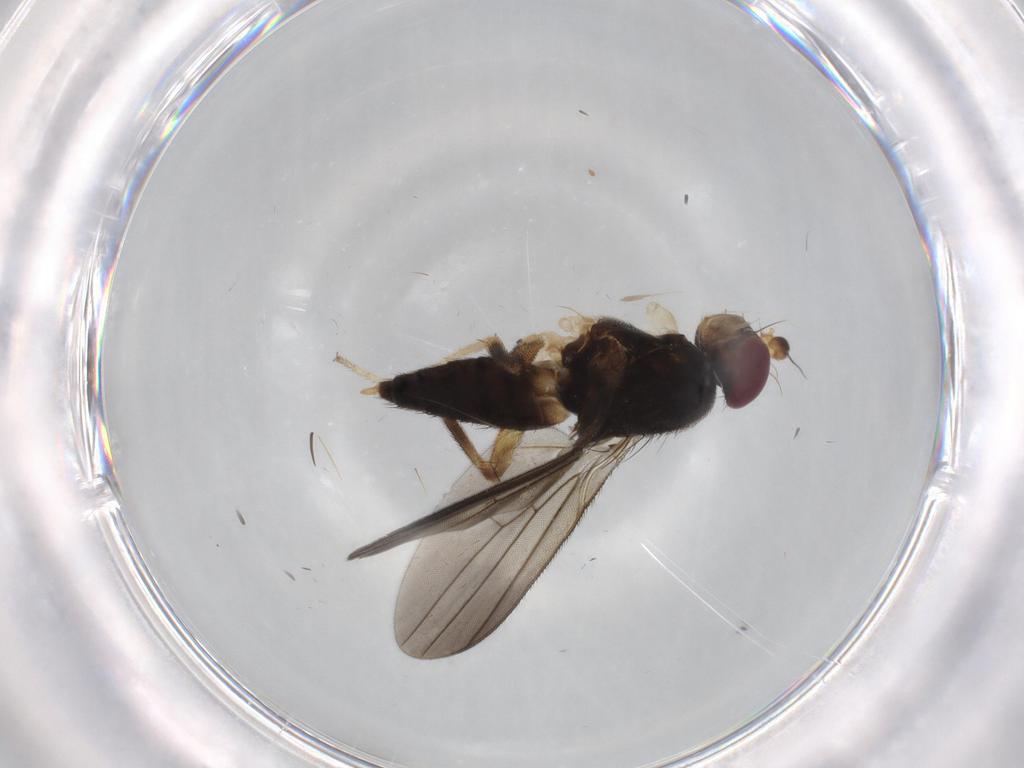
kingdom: Animalia
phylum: Arthropoda
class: Insecta
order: Diptera
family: Clusiidae
